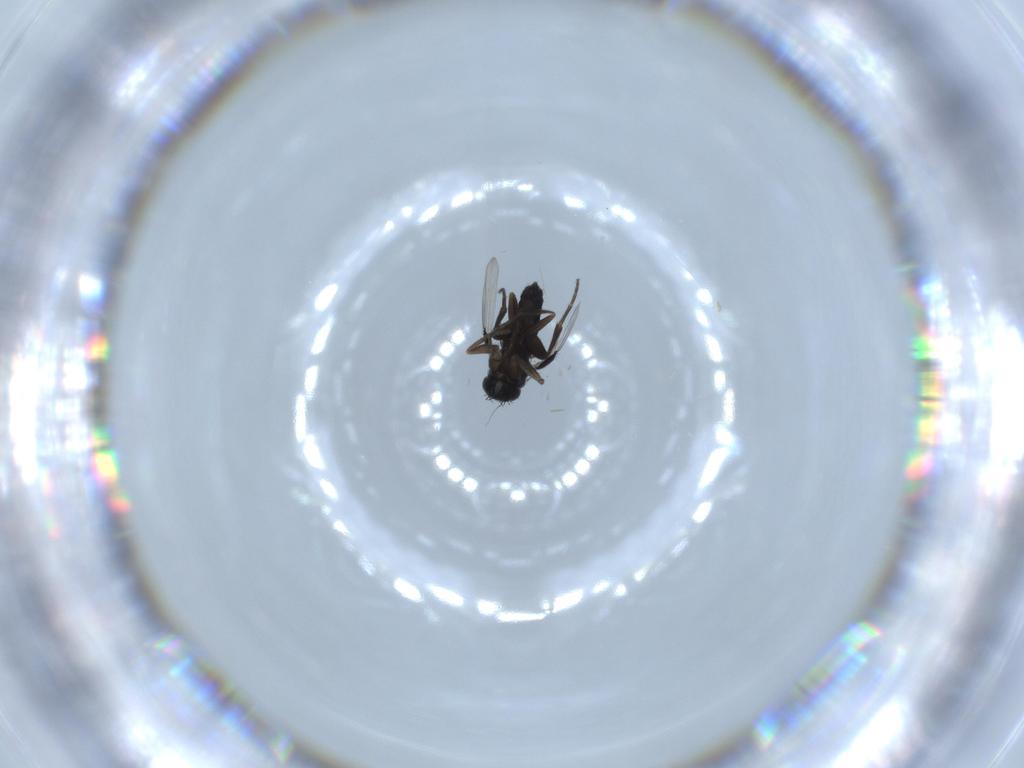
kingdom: Animalia
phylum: Arthropoda
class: Insecta
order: Diptera
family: Phoridae
